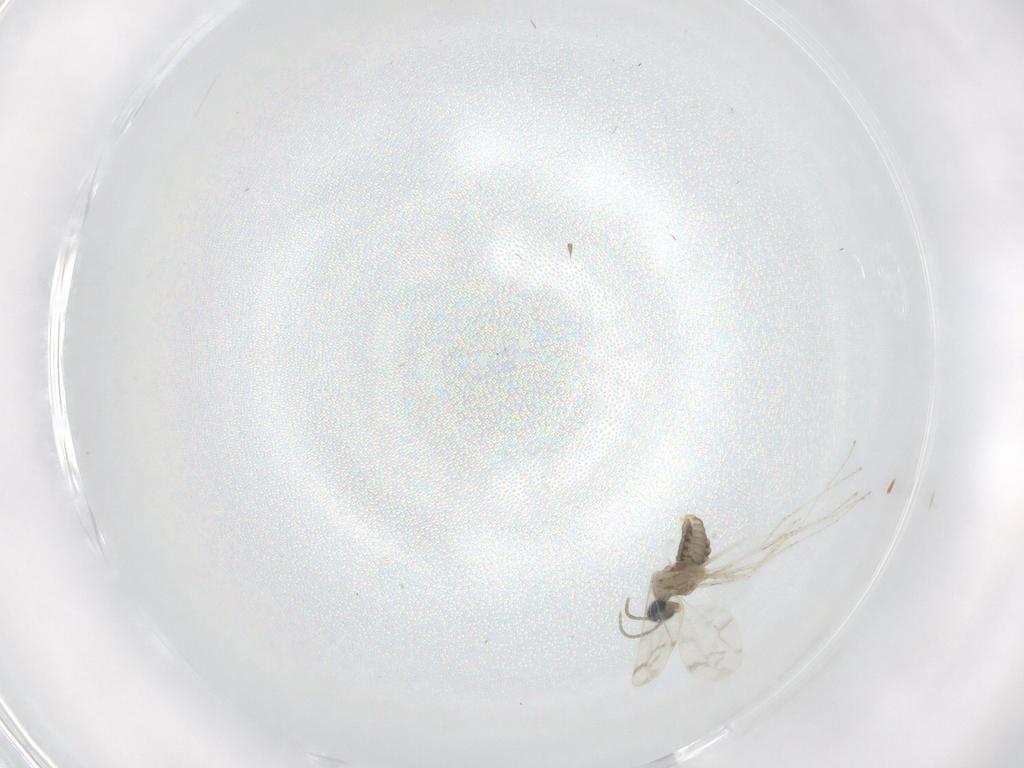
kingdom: Animalia
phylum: Arthropoda
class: Insecta
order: Diptera
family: Cecidomyiidae
